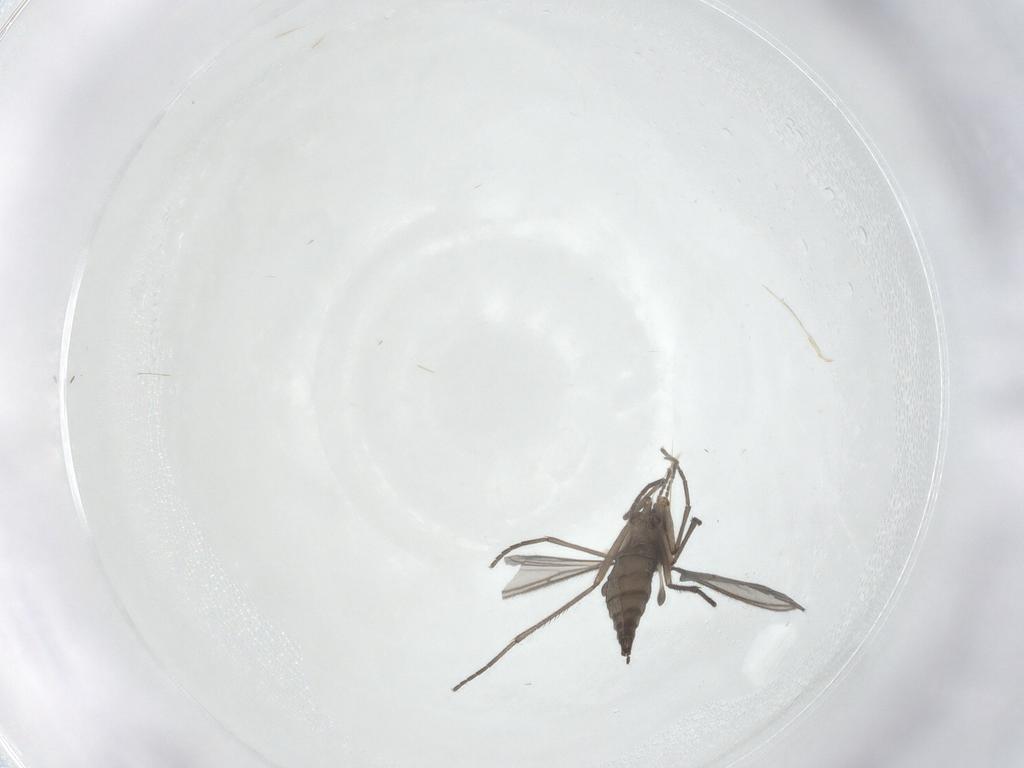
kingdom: Animalia
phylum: Arthropoda
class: Insecta
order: Diptera
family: Sciaridae
